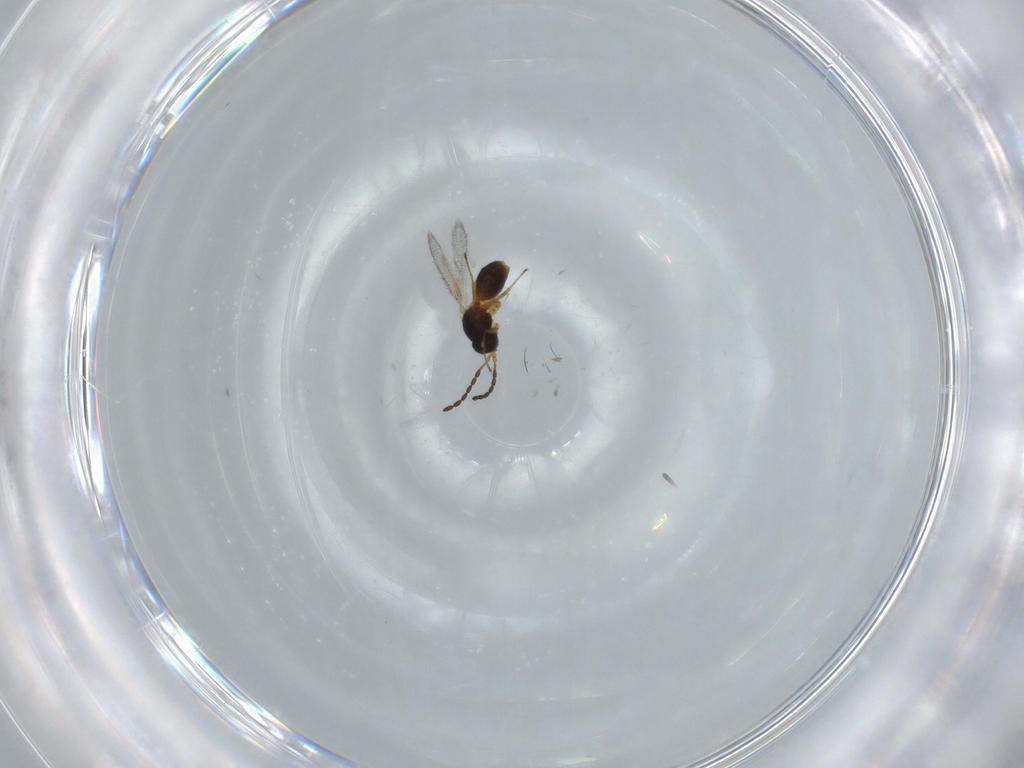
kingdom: Animalia
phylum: Arthropoda
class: Insecta
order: Hymenoptera
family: Figitidae
